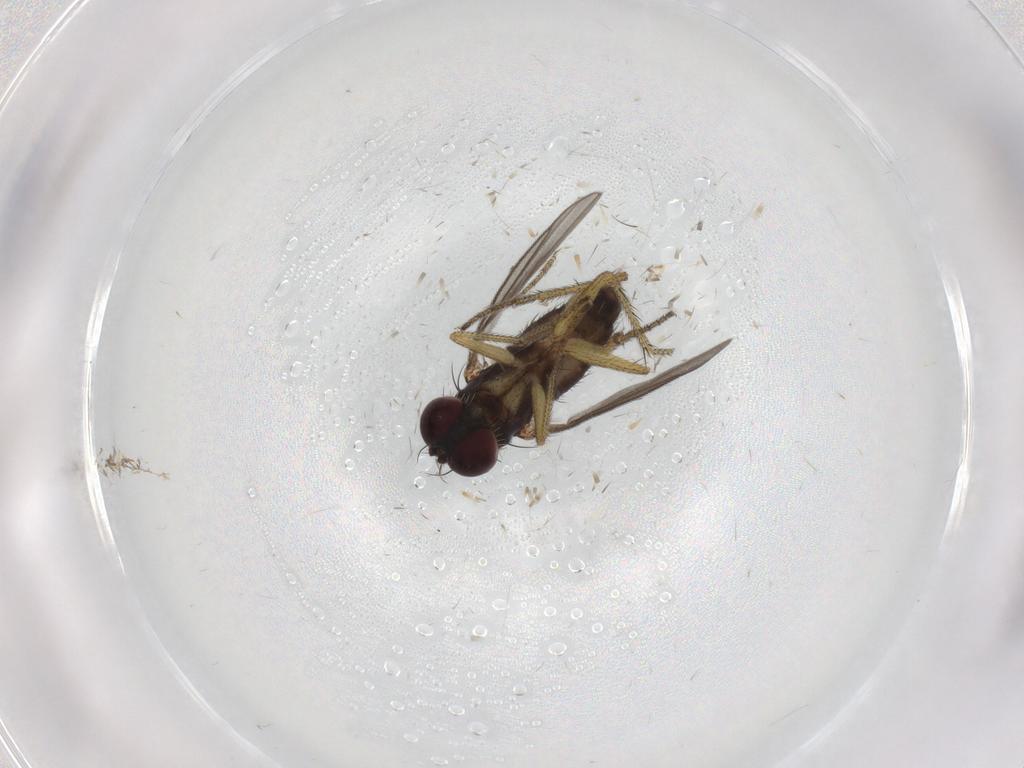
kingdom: Animalia
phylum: Arthropoda
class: Insecta
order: Diptera
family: Dolichopodidae
